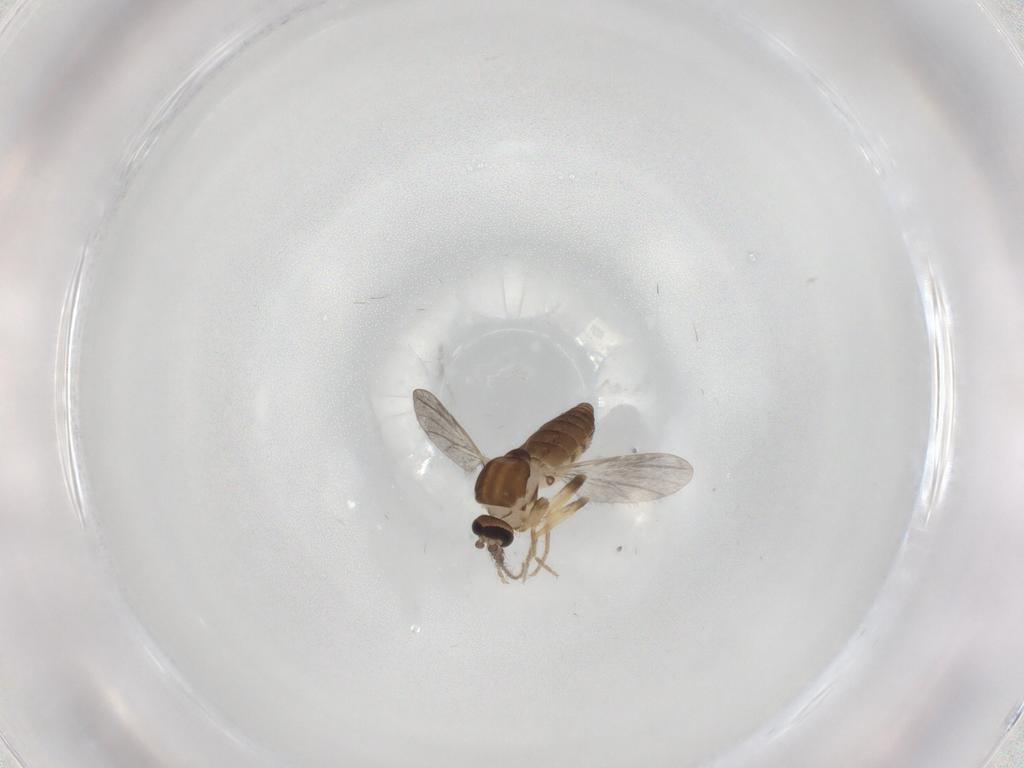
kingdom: Animalia
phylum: Arthropoda
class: Insecta
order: Diptera
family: Ceratopogonidae
